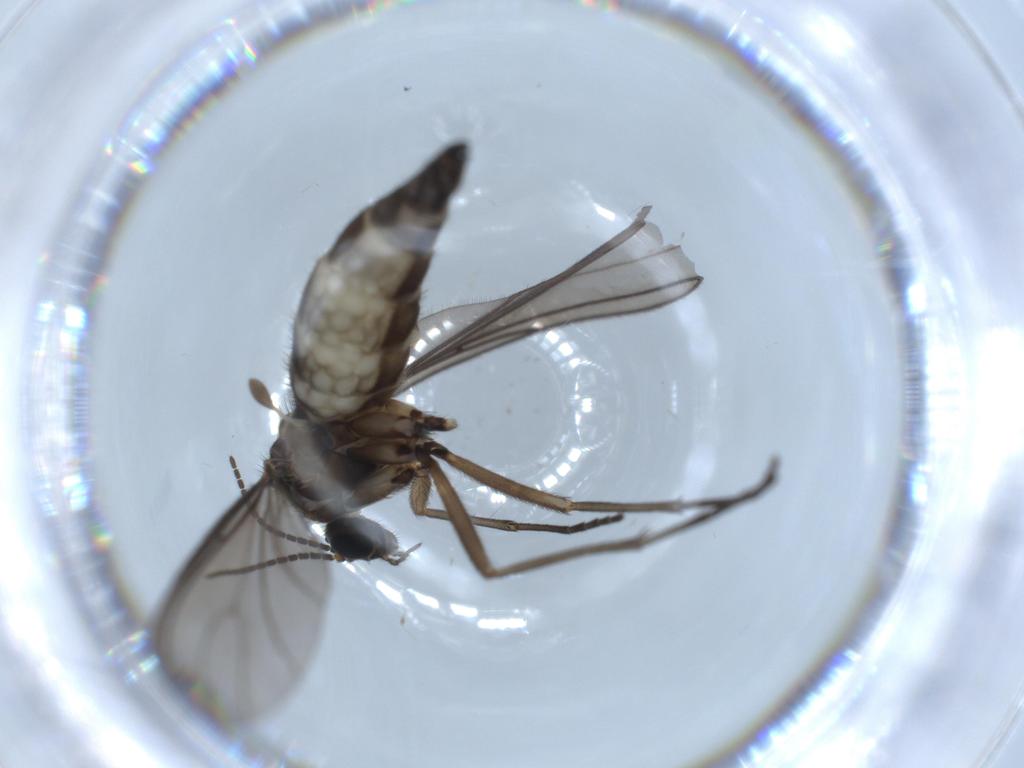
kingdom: Animalia
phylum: Arthropoda
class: Insecta
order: Diptera
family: Sciaridae
